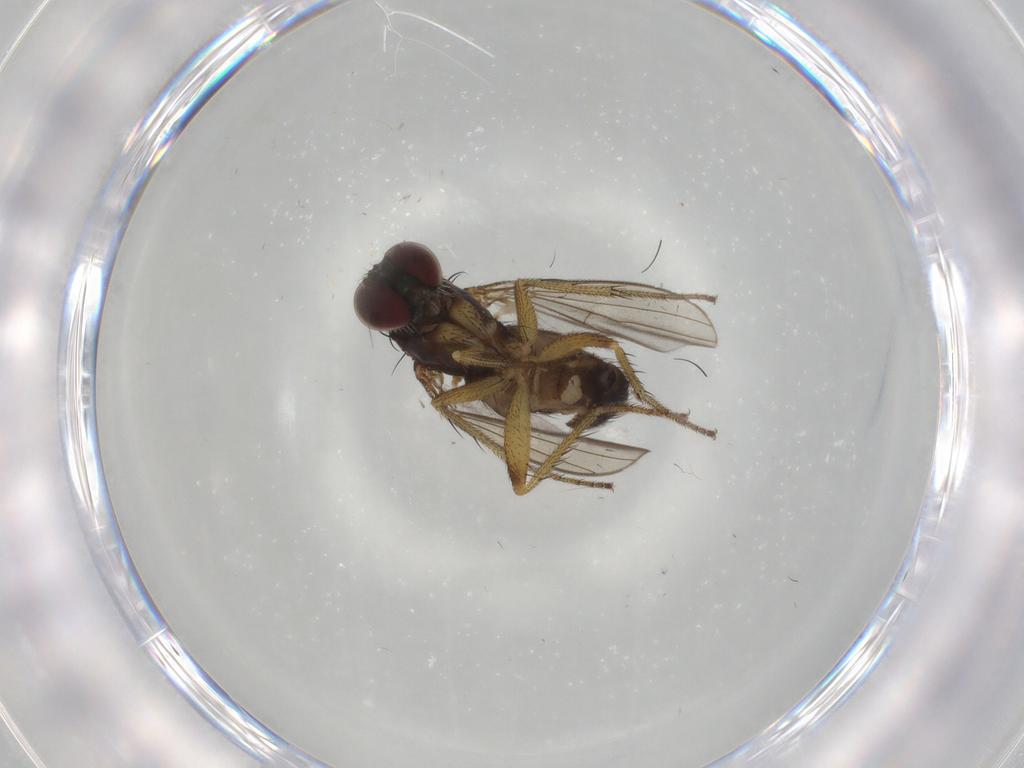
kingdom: Animalia
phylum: Arthropoda
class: Insecta
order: Diptera
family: Dolichopodidae
